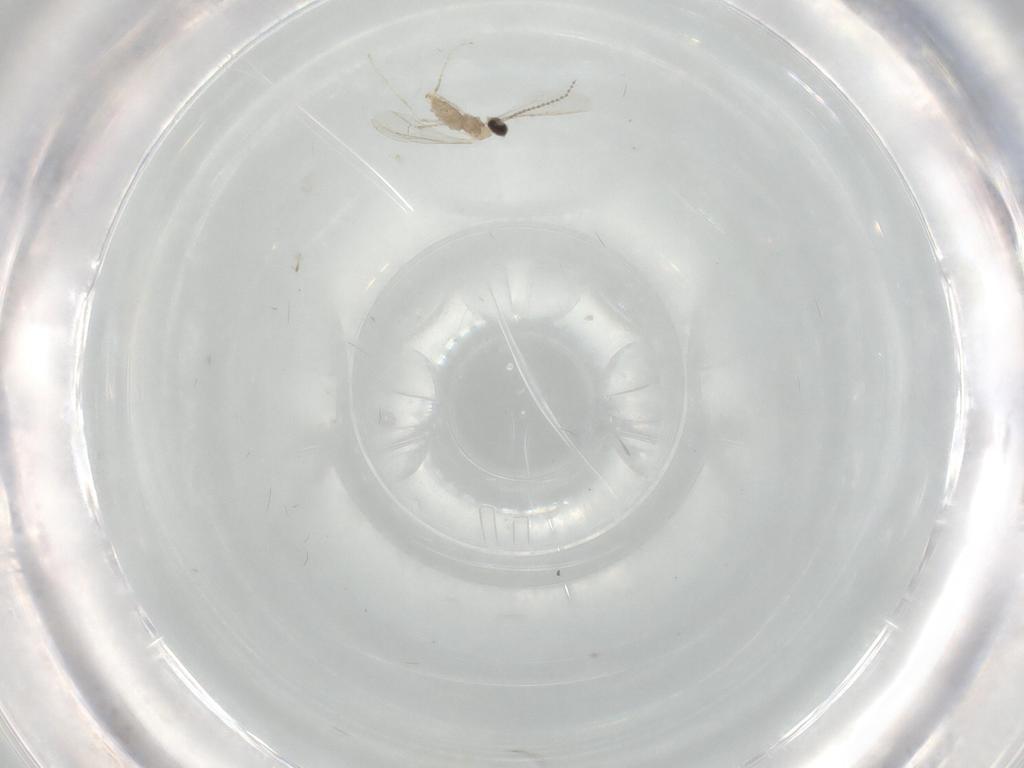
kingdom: Animalia
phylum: Arthropoda
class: Insecta
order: Diptera
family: Cecidomyiidae
